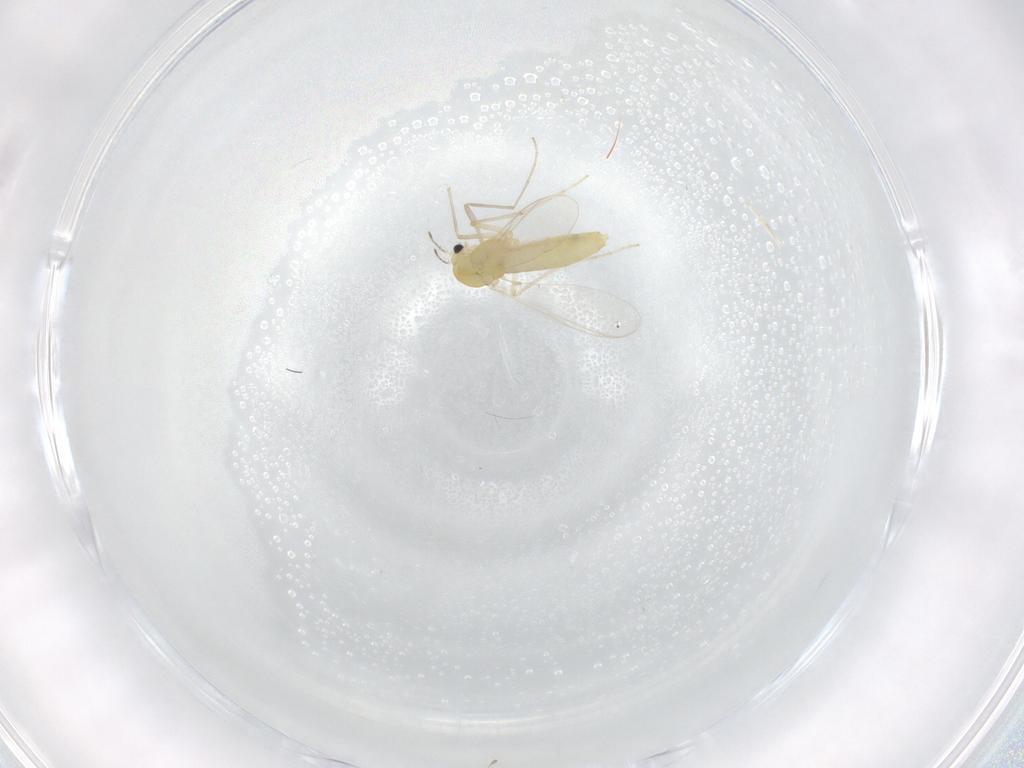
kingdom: Animalia
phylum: Arthropoda
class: Insecta
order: Diptera
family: Chironomidae
